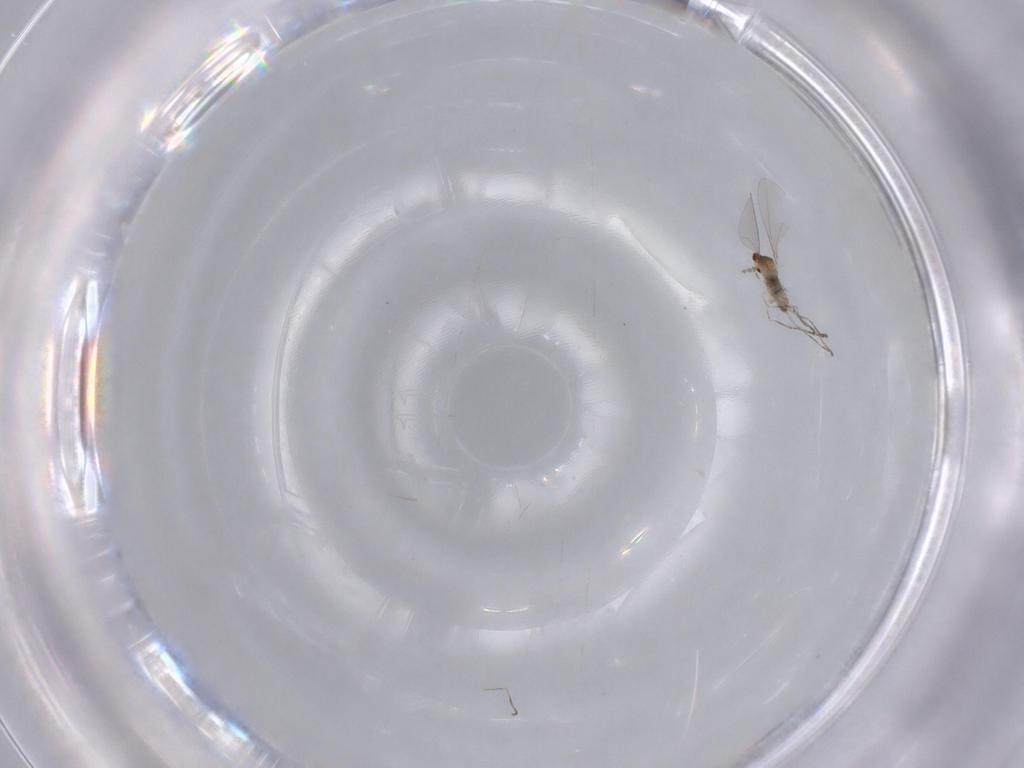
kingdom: Animalia
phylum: Arthropoda
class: Insecta
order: Diptera
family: Cecidomyiidae
